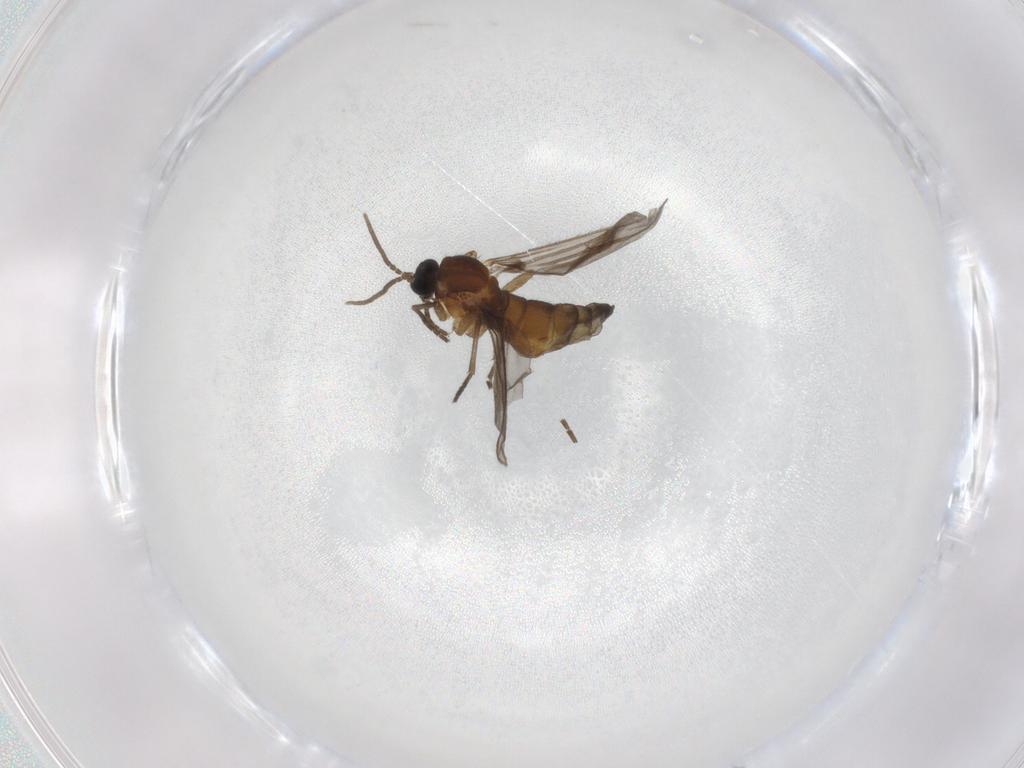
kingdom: Animalia
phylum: Arthropoda
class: Insecta
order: Diptera
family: Sciaridae
